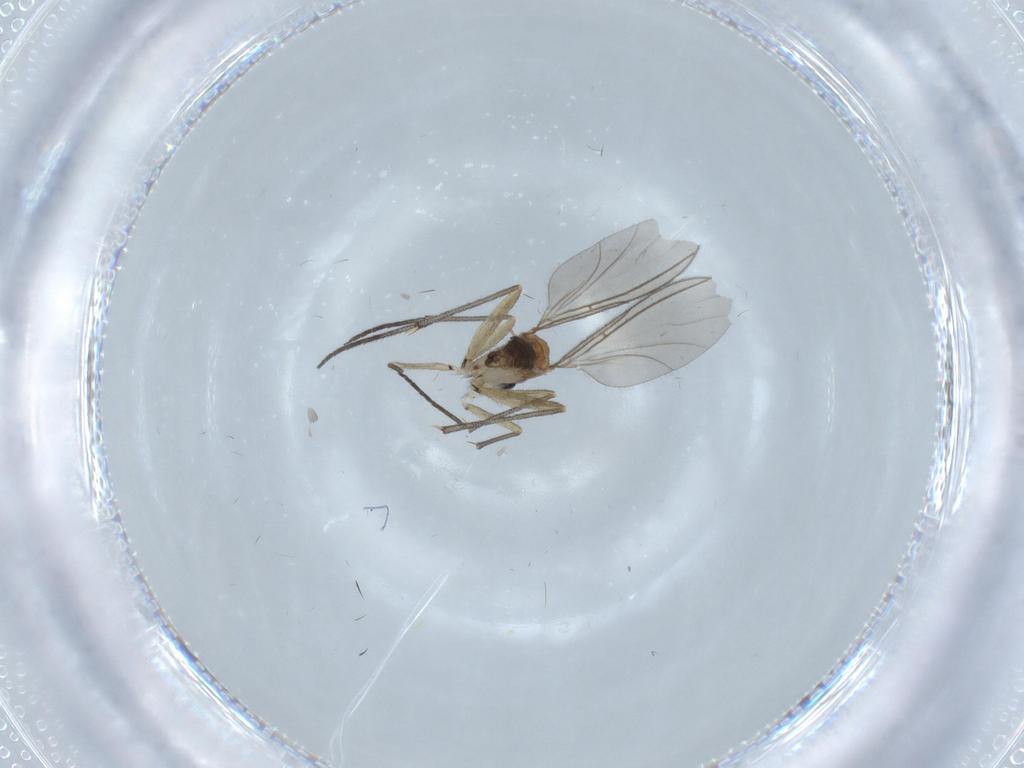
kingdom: Animalia
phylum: Arthropoda
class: Insecta
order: Diptera
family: Sciaridae
